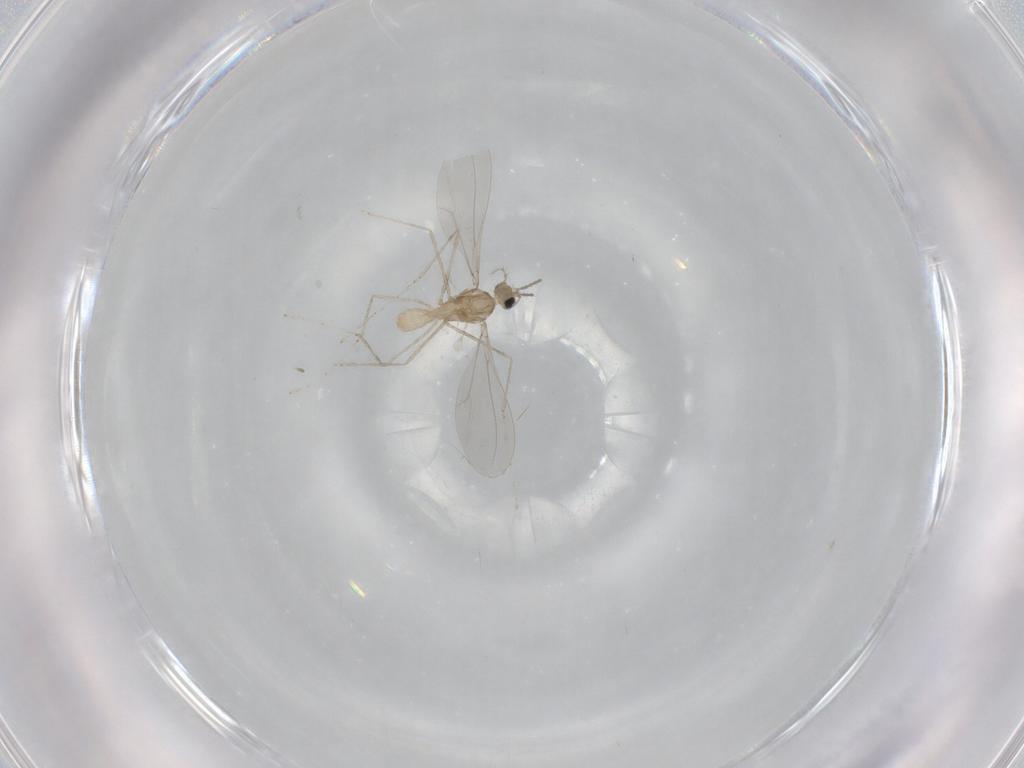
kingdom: Animalia
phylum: Arthropoda
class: Insecta
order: Diptera
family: Cecidomyiidae
